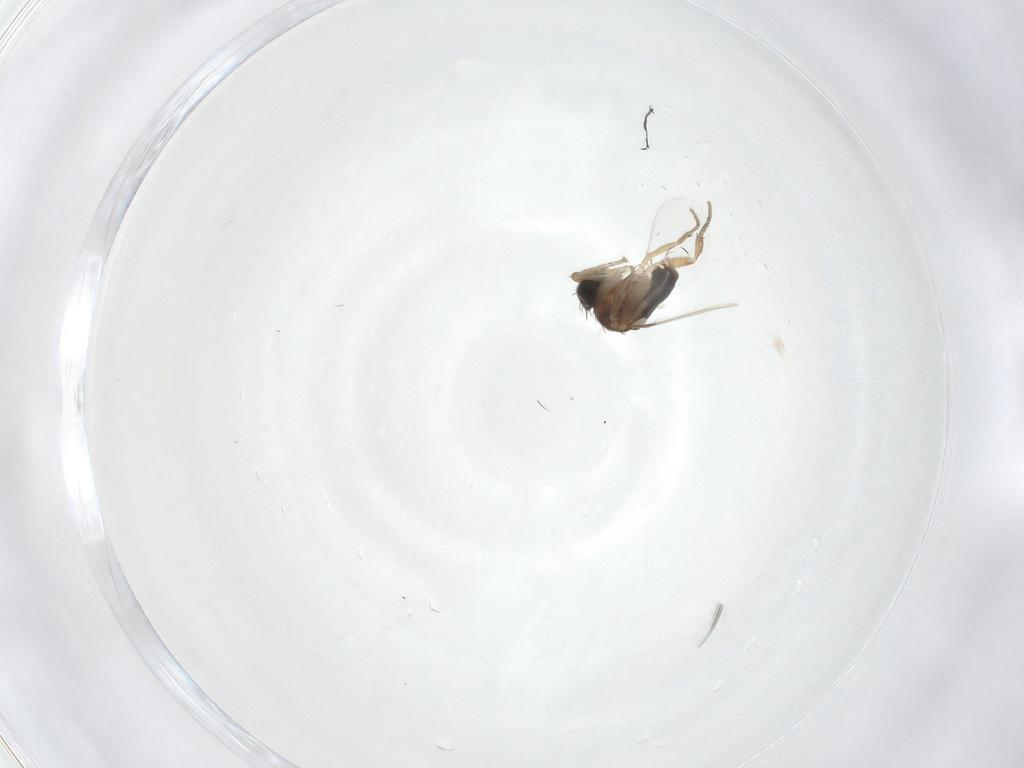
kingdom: Animalia
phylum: Arthropoda
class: Insecta
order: Diptera
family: Phoridae
